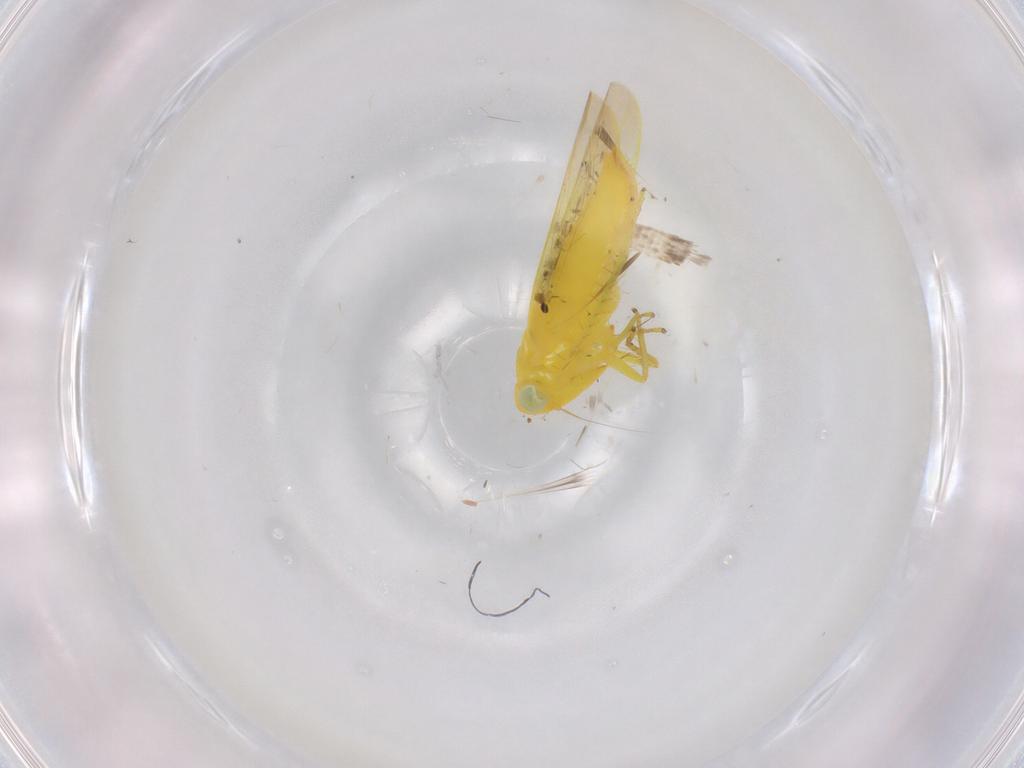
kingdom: Animalia
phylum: Arthropoda
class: Insecta
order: Hemiptera
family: Cicadellidae
